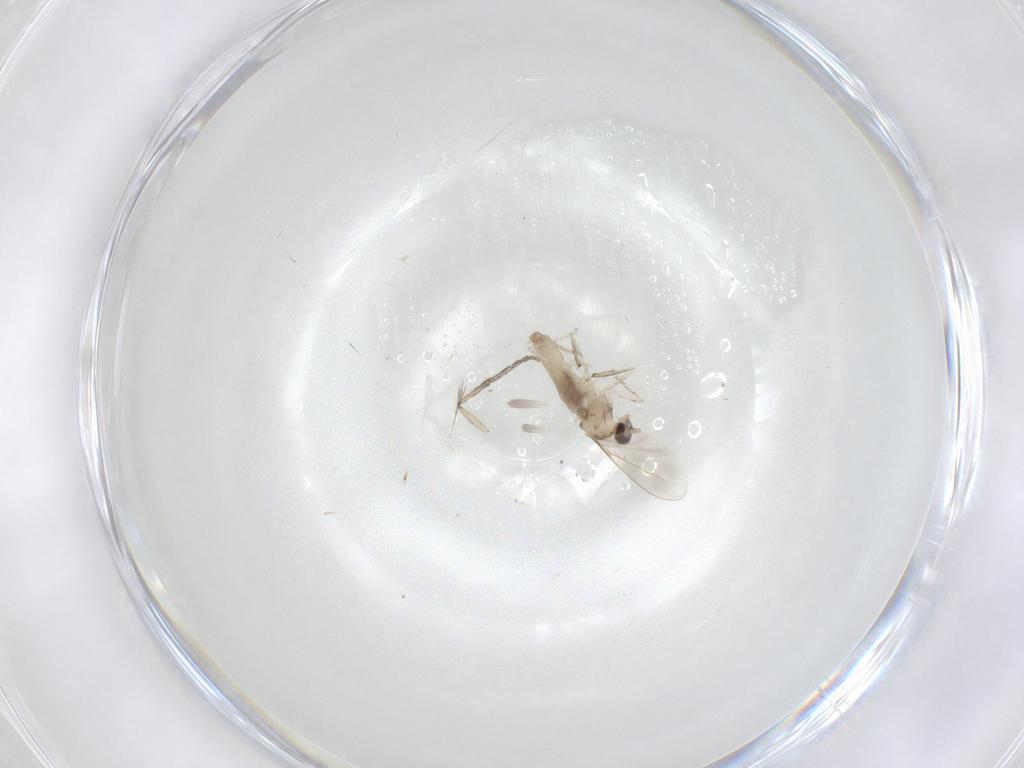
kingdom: Animalia
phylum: Arthropoda
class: Insecta
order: Diptera
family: Cecidomyiidae
